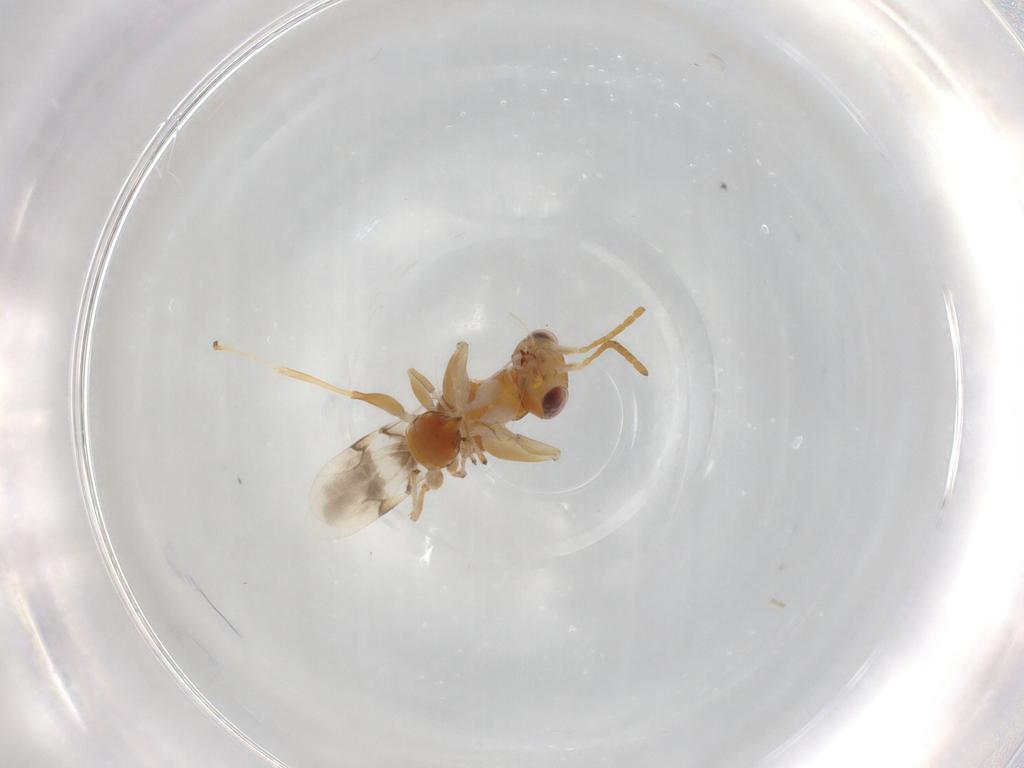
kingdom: Animalia
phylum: Arthropoda
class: Insecta
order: Hymenoptera
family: Dryinidae
